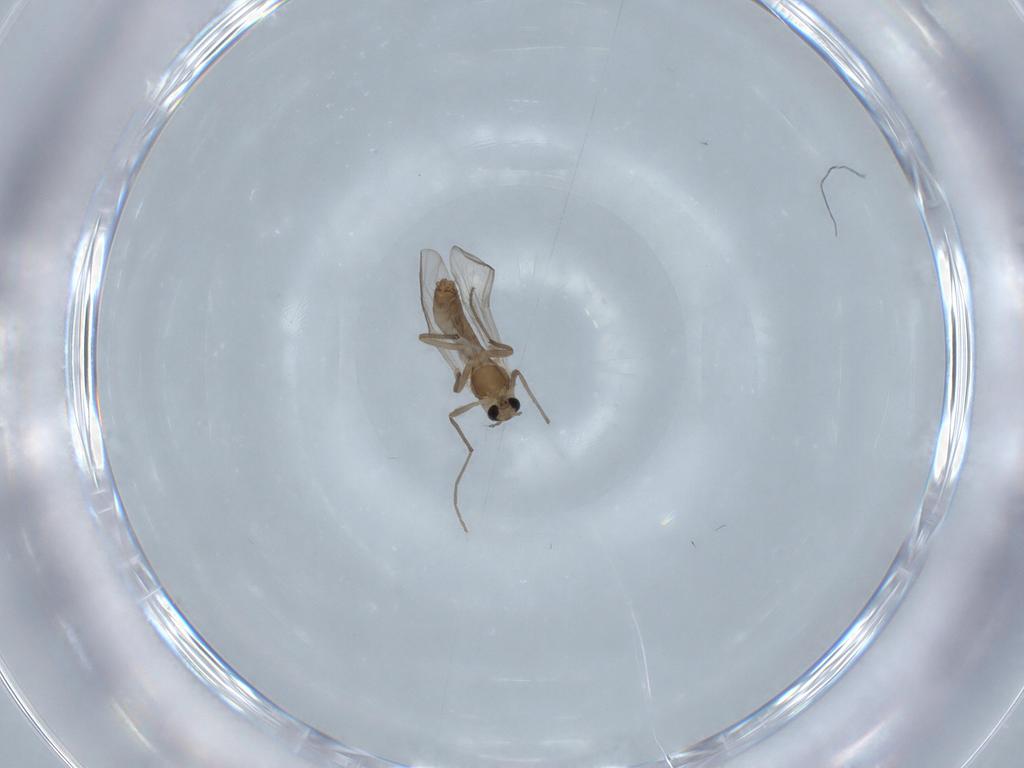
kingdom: Animalia
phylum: Arthropoda
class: Insecta
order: Diptera
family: Chironomidae
